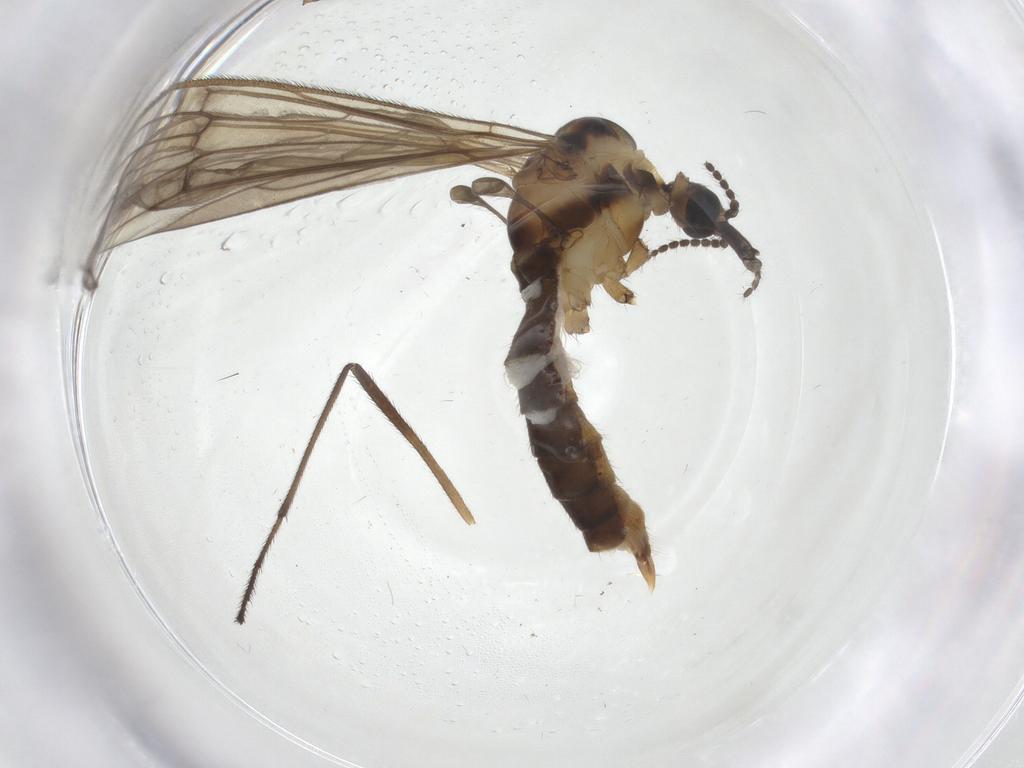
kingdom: Animalia
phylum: Arthropoda
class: Insecta
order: Diptera
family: Limoniidae
